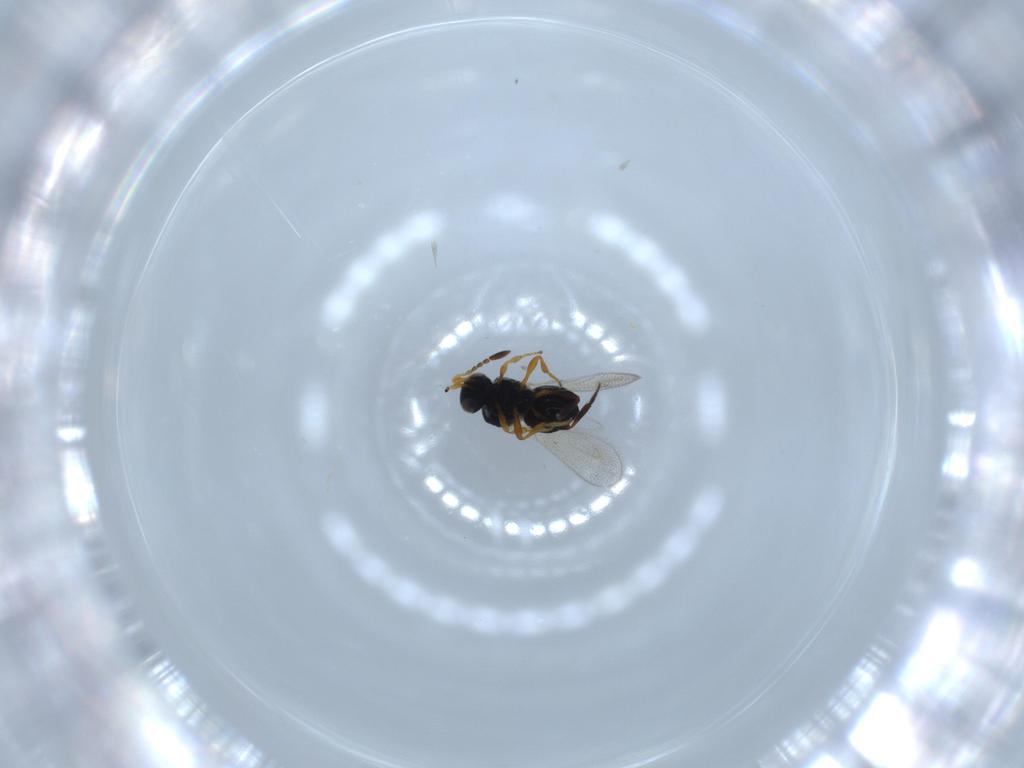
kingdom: Animalia
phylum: Arthropoda
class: Insecta
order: Hymenoptera
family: Platygastridae
